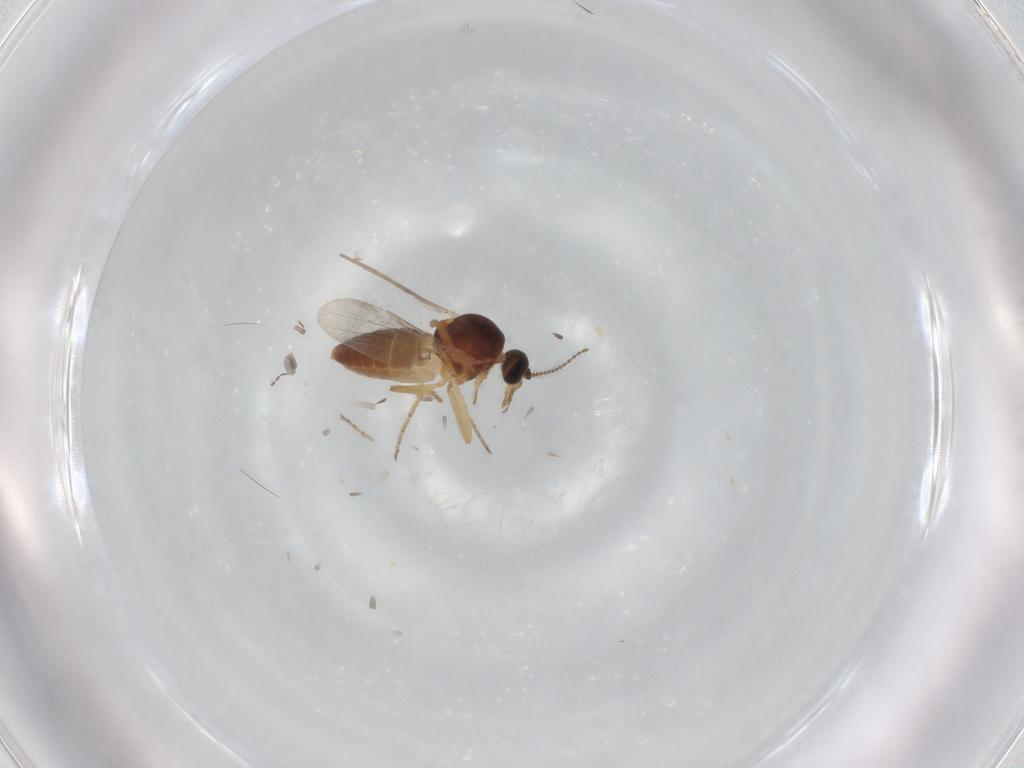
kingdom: Animalia
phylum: Arthropoda
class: Insecta
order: Diptera
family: Ceratopogonidae
